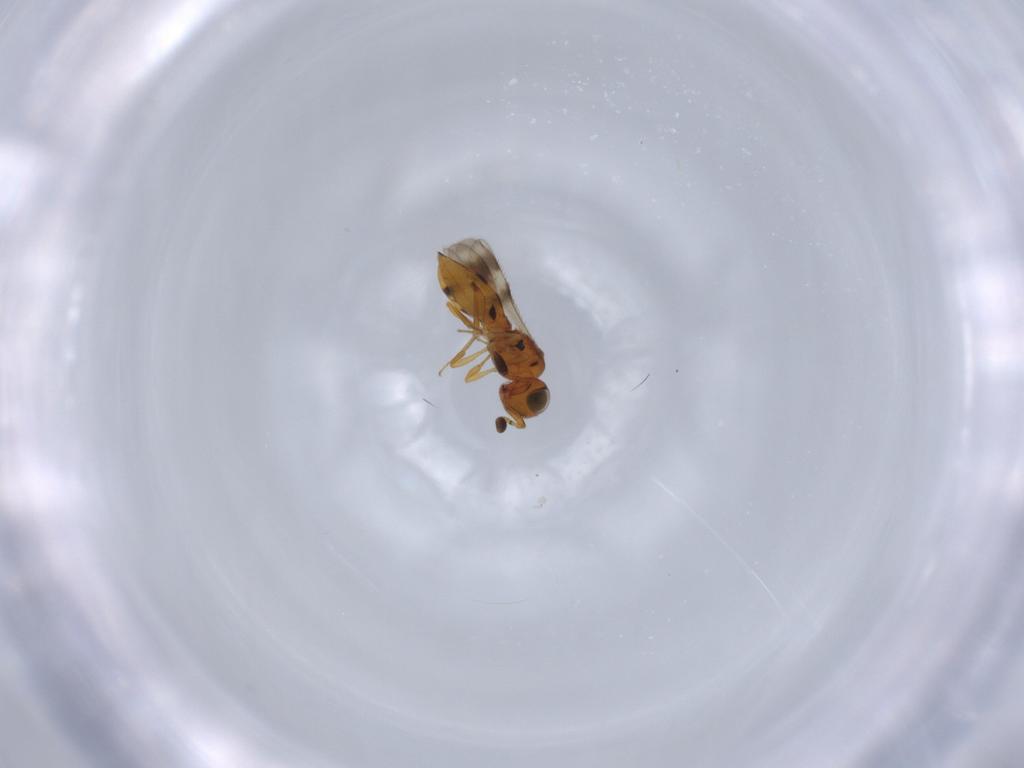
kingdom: Animalia
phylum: Arthropoda
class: Insecta
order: Hymenoptera
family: Scelionidae
